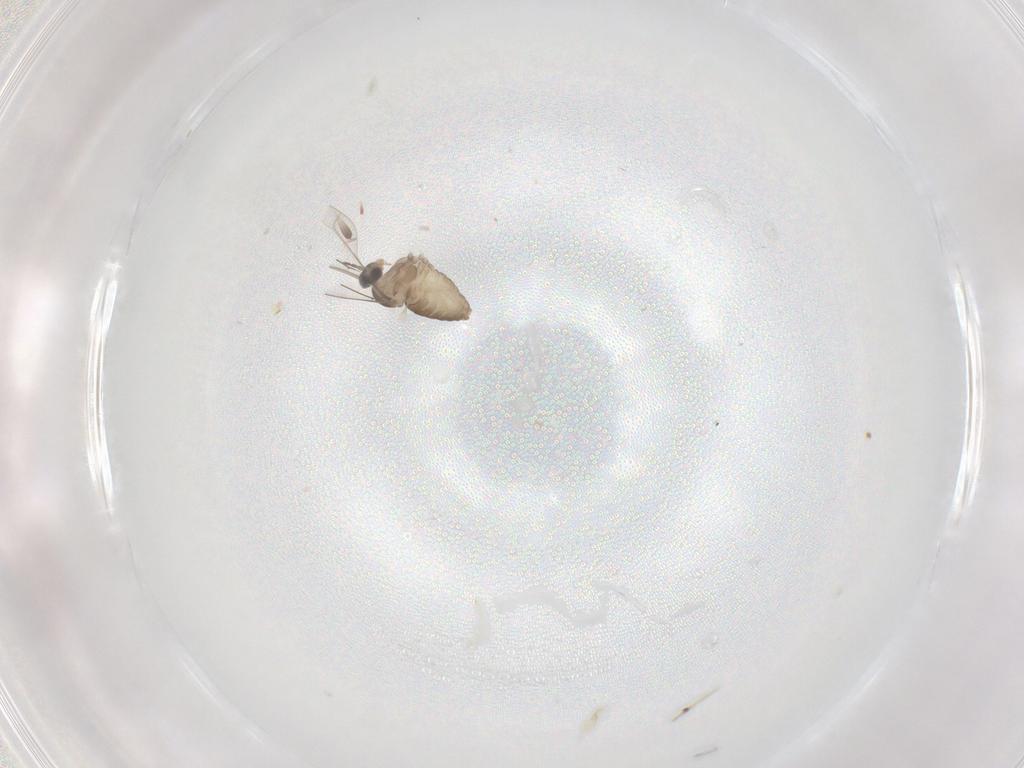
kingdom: Animalia
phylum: Arthropoda
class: Insecta
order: Diptera
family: Cecidomyiidae
